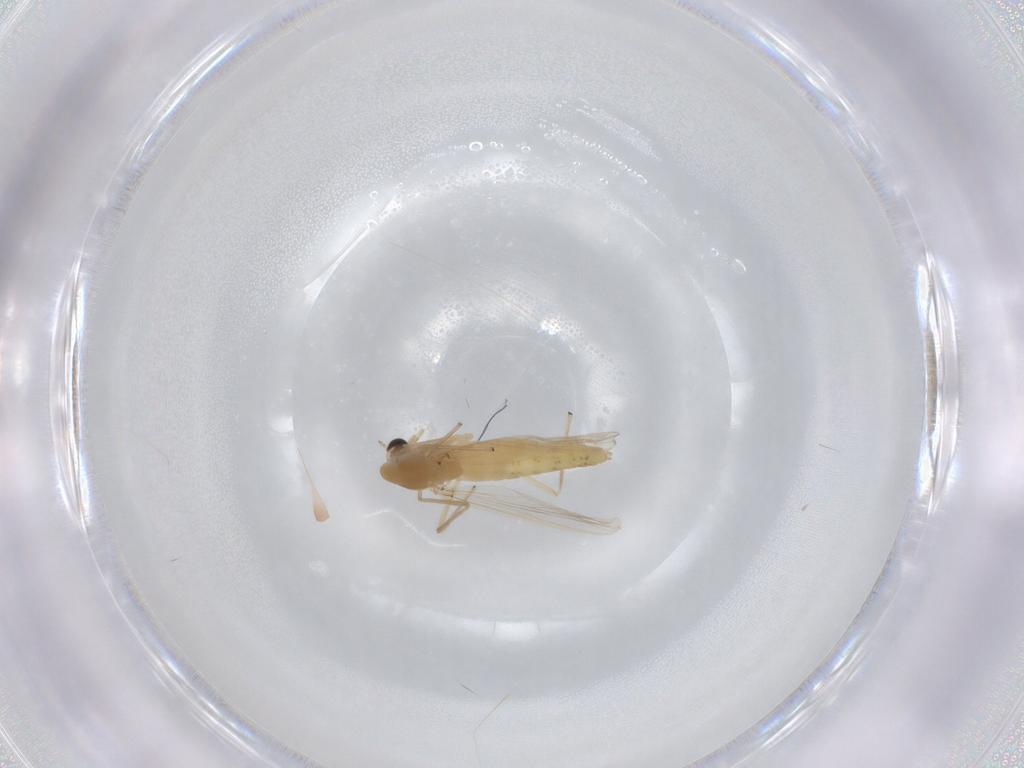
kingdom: Animalia
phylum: Arthropoda
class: Insecta
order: Diptera
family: Chironomidae
